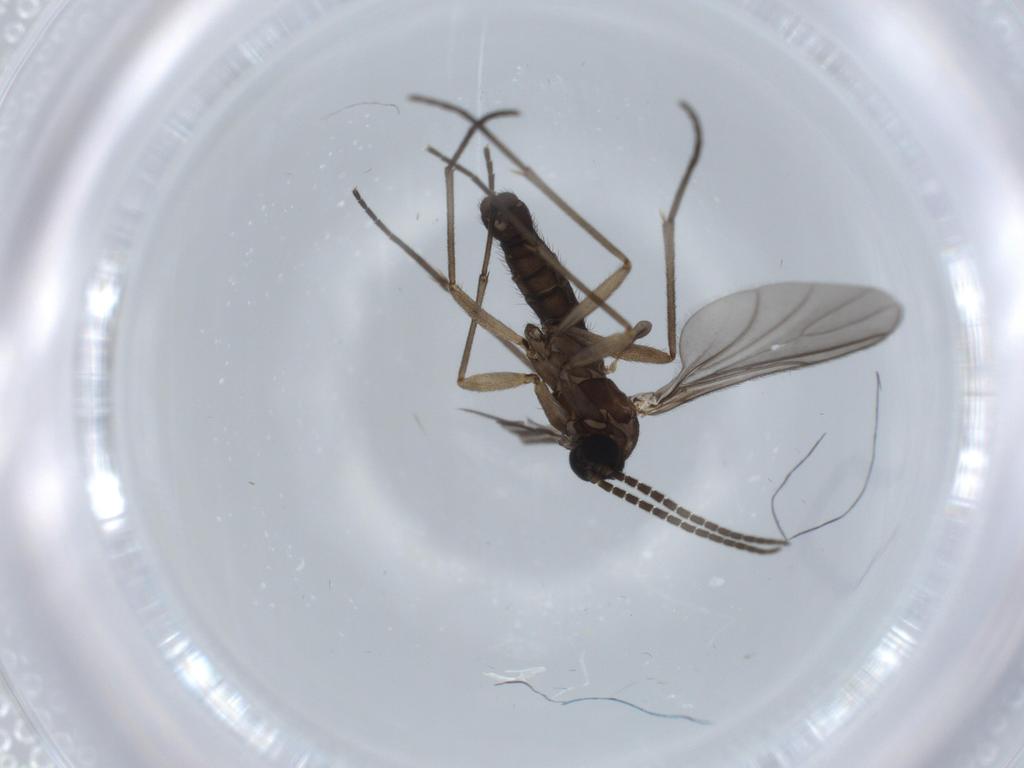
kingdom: Animalia
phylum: Arthropoda
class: Insecta
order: Diptera
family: Sciaridae
